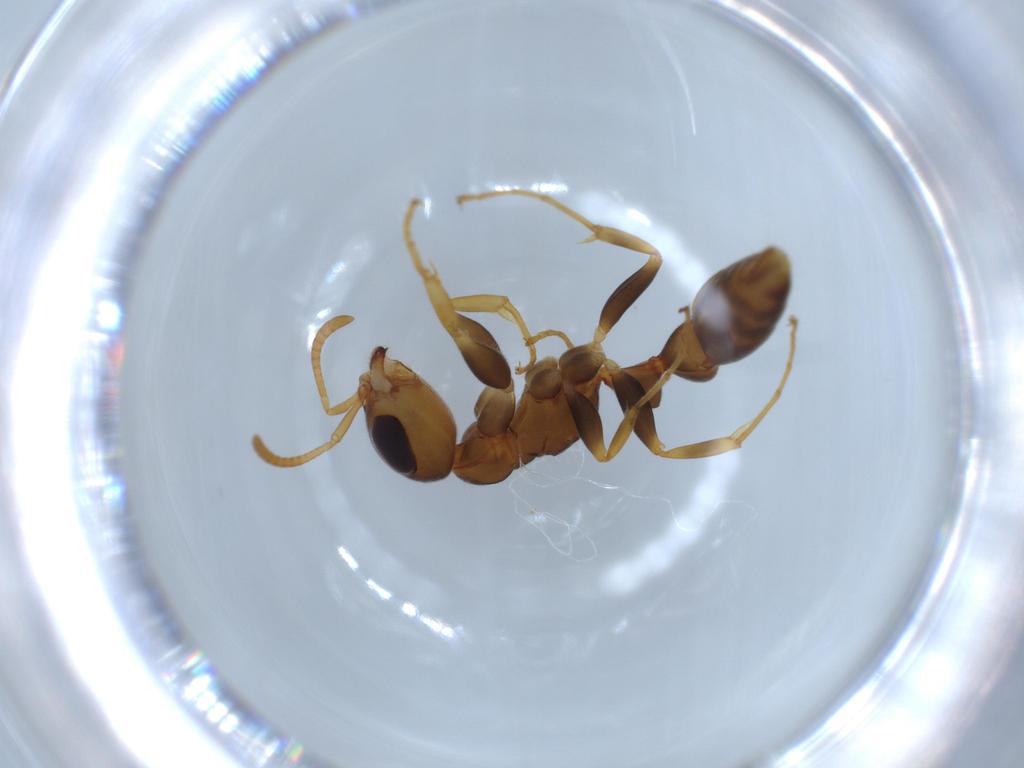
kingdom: Animalia
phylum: Arthropoda
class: Insecta
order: Hymenoptera
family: Formicidae
